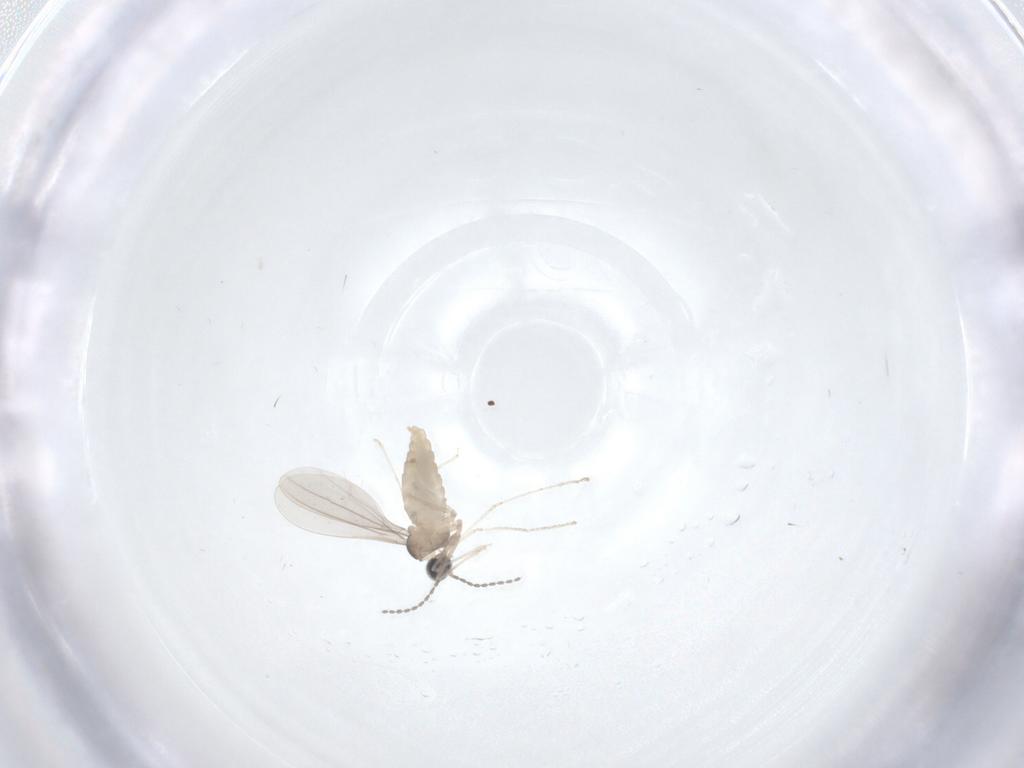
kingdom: Animalia
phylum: Arthropoda
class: Insecta
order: Diptera
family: Cecidomyiidae
